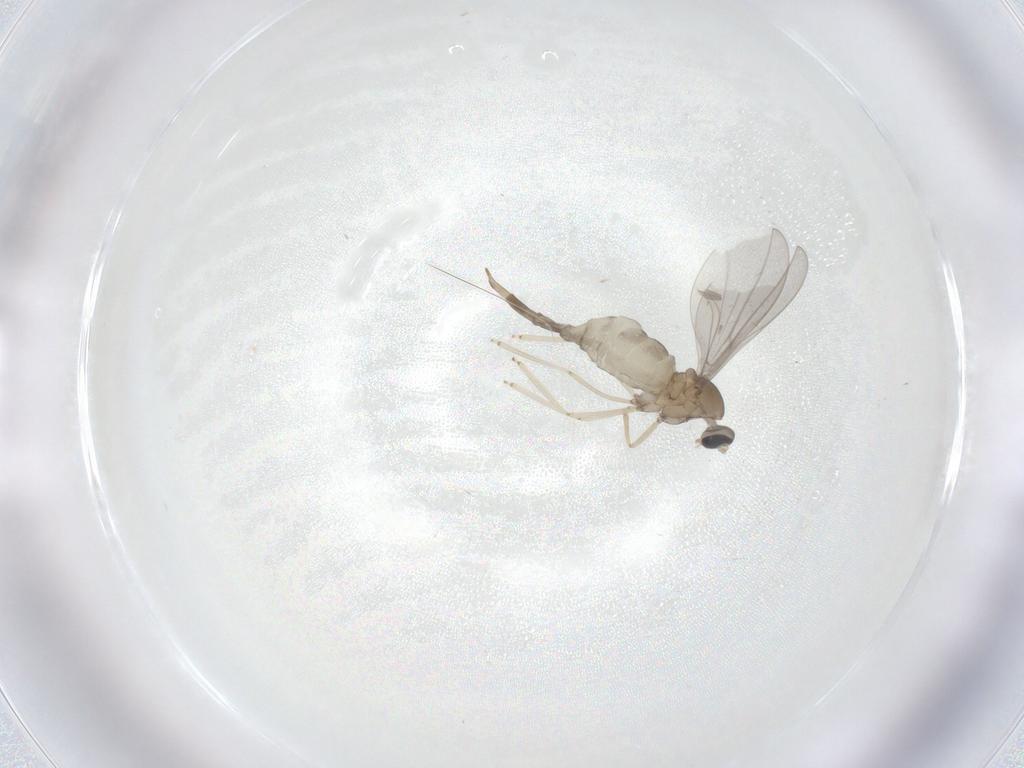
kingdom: Animalia
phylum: Arthropoda
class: Insecta
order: Diptera
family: Cecidomyiidae
